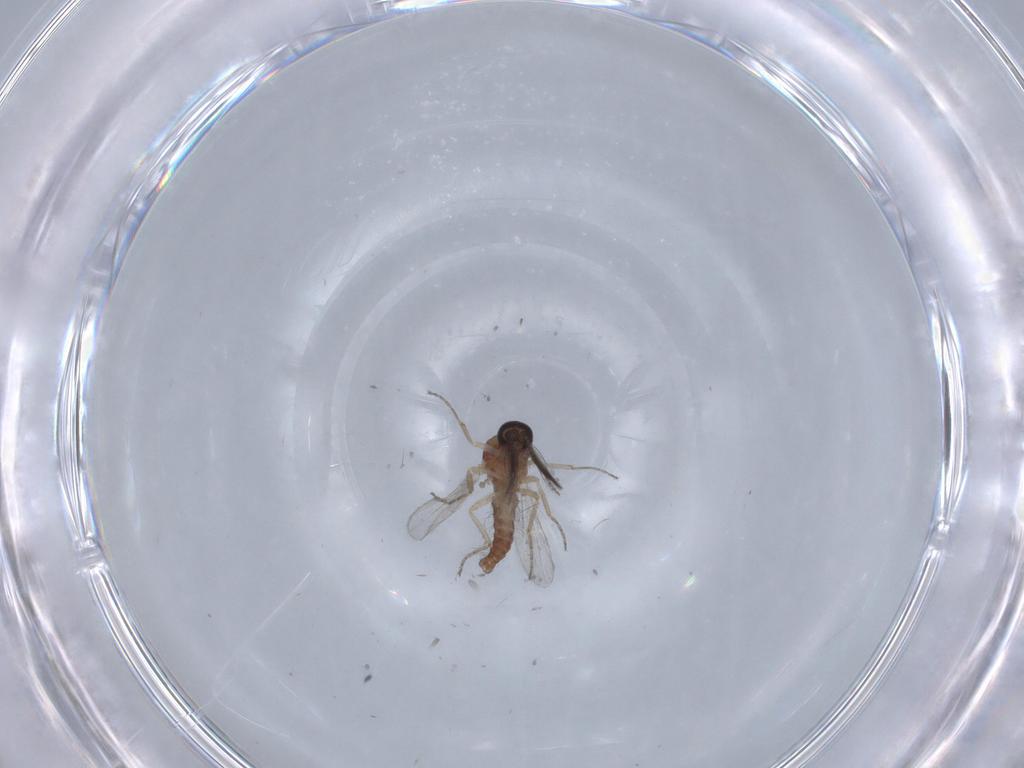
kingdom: Animalia
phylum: Arthropoda
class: Insecta
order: Diptera
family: Ceratopogonidae
